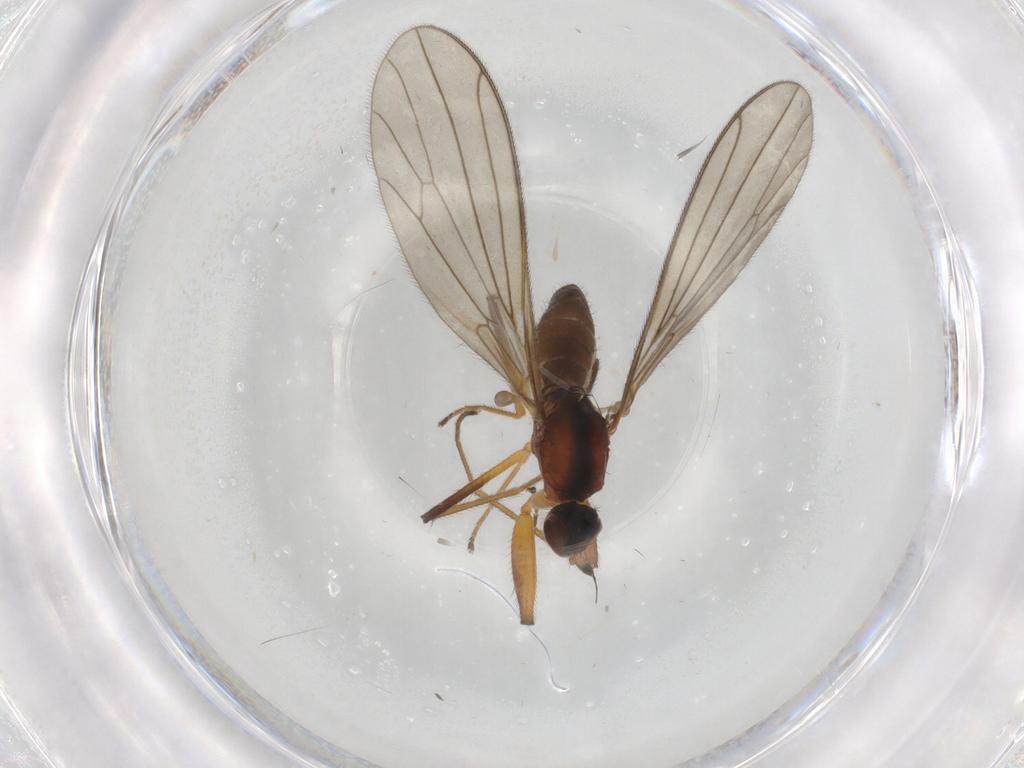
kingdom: Animalia
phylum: Arthropoda
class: Insecta
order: Diptera
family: Empididae
